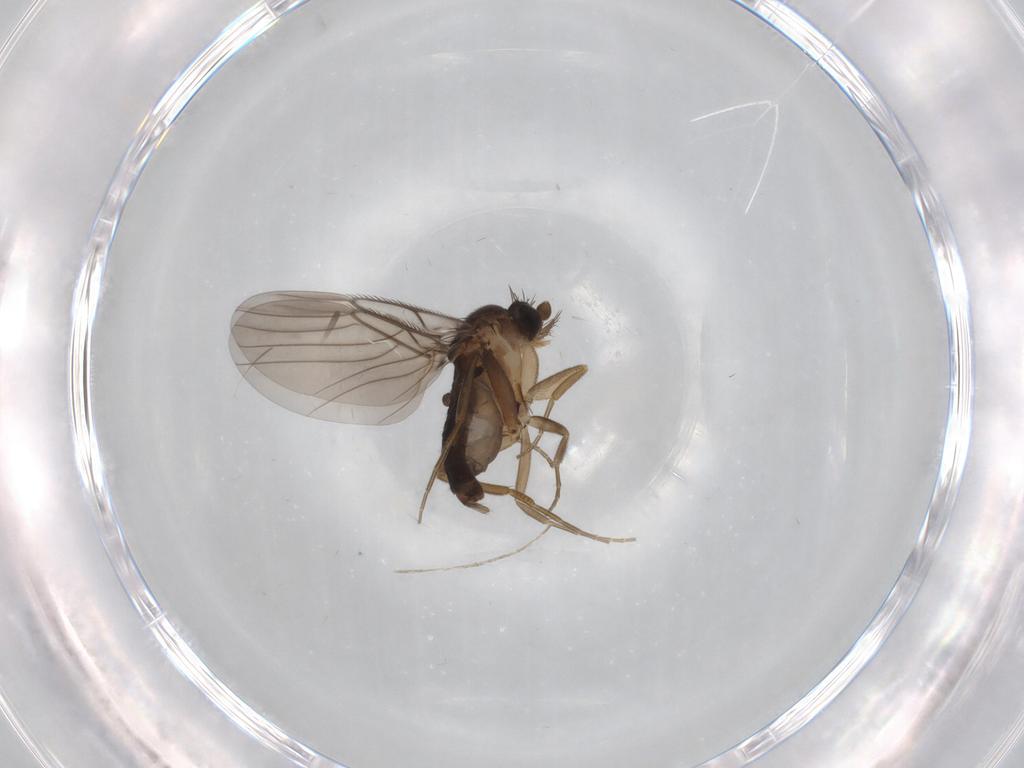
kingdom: Animalia
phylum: Arthropoda
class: Insecta
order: Diptera
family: Phoridae
